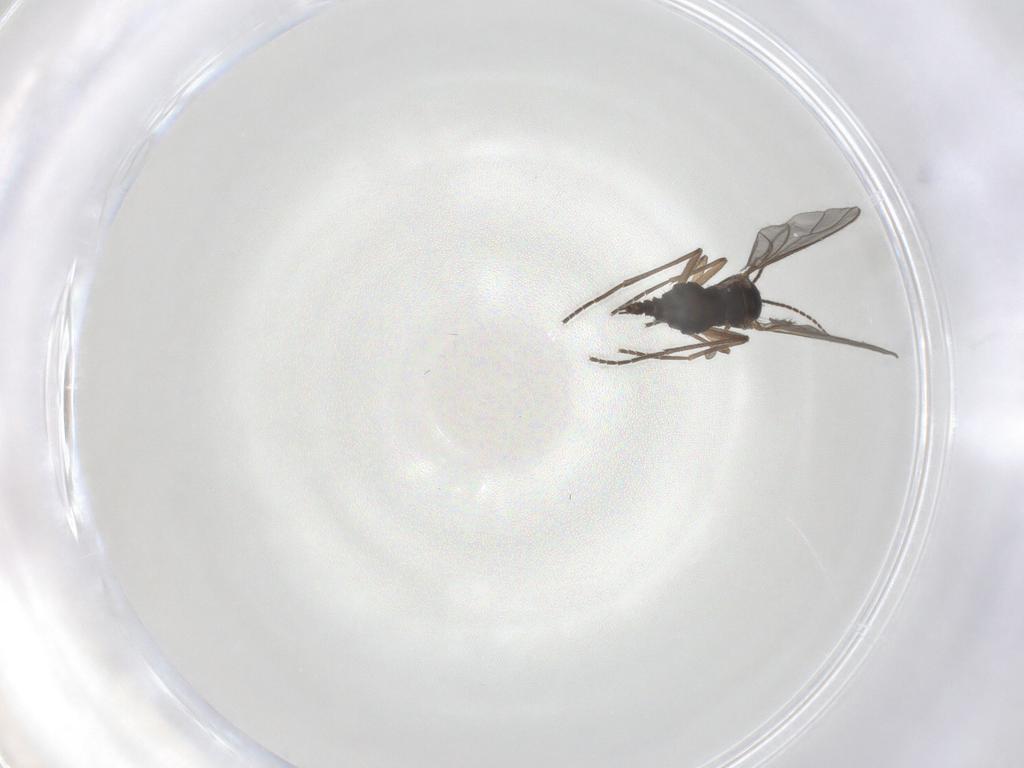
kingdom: Animalia
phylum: Arthropoda
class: Insecta
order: Diptera
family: Sciaridae
